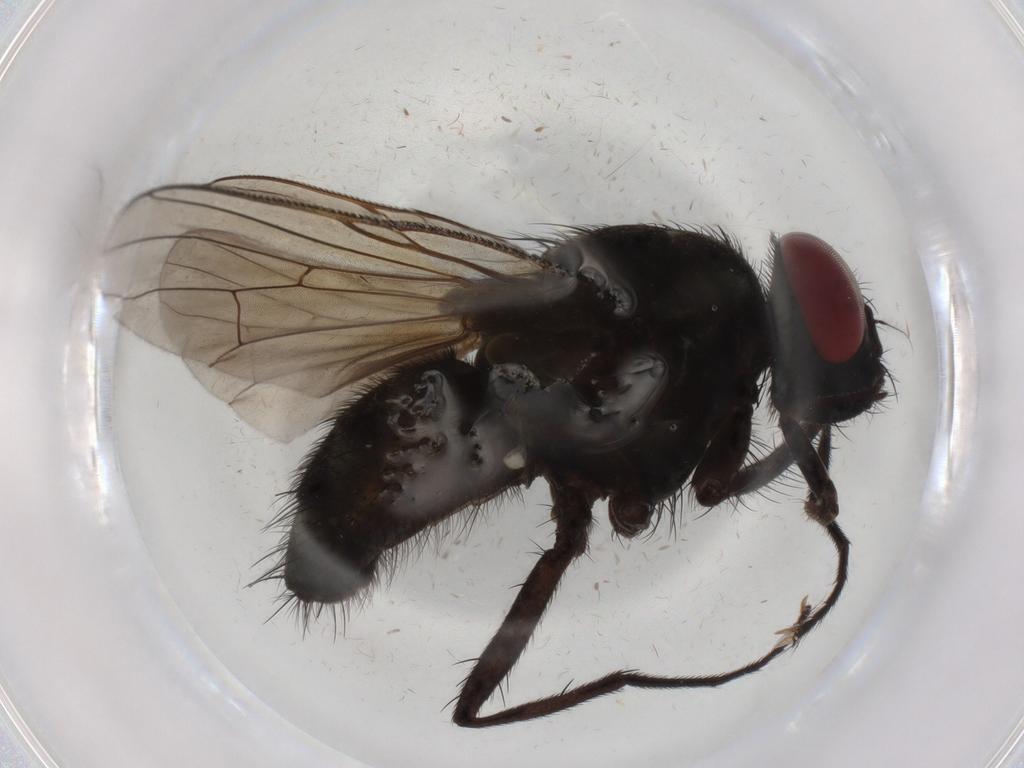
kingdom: Animalia
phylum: Arthropoda
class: Insecta
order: Diptera
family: Muscidae
